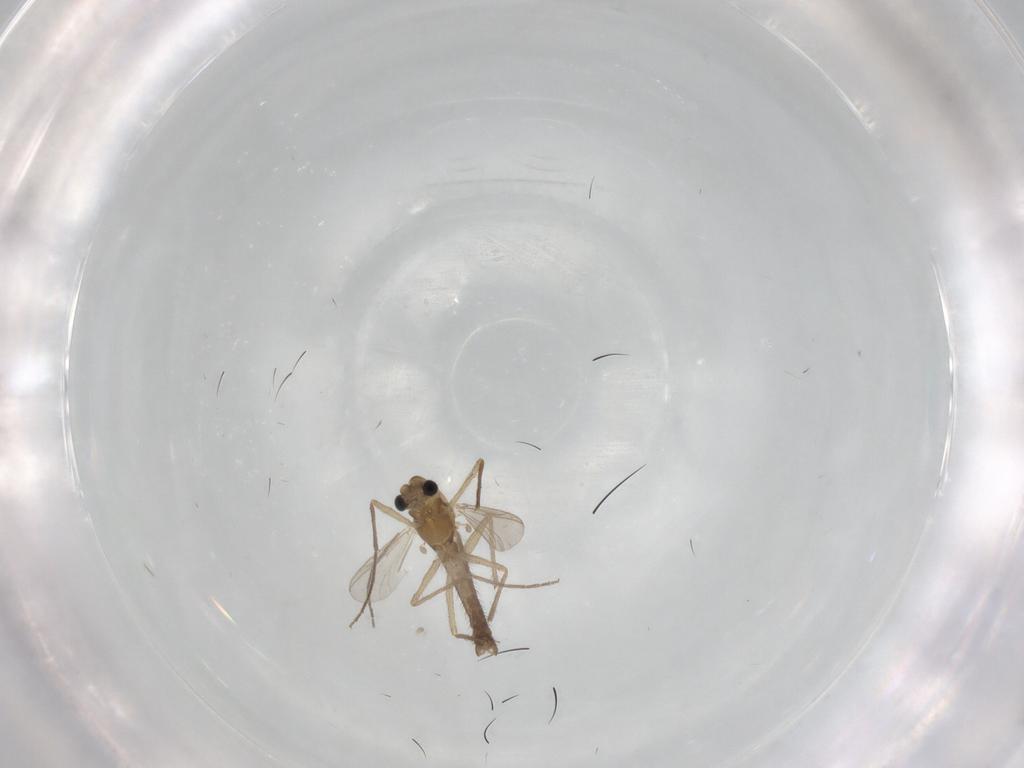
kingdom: Animalia
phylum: Arthropoda
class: Insecta
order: Diptera
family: Chironomidae
